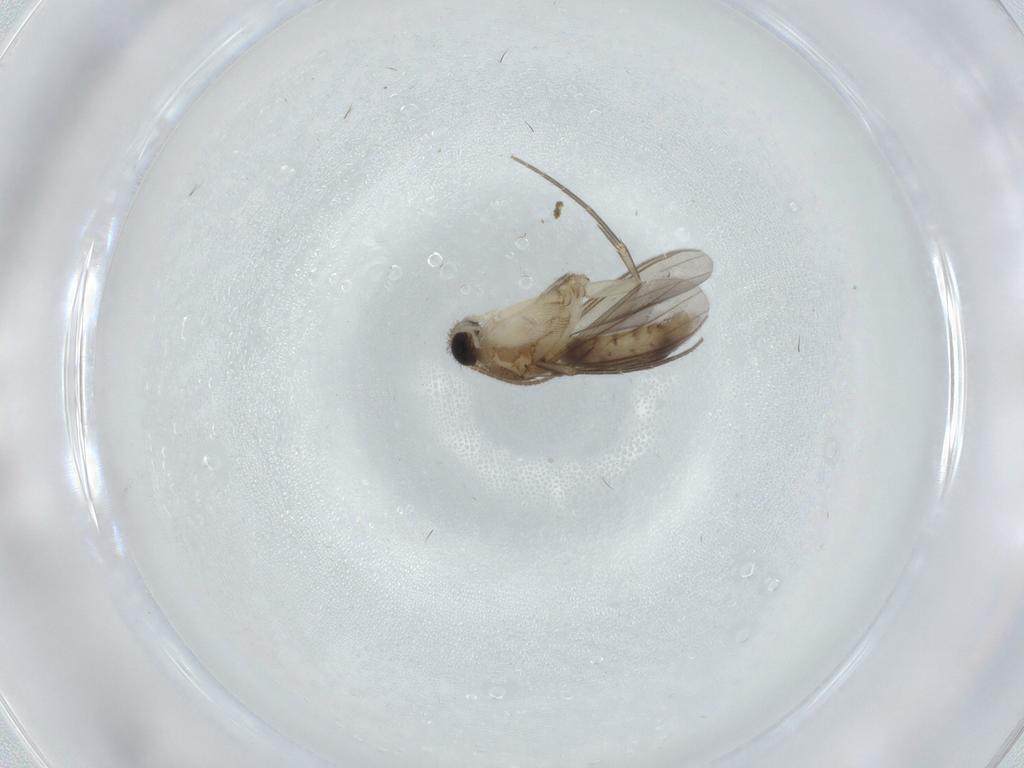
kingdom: Animalia
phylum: Arthropoda
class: Insecta
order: Diptera
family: Mycetophilidae
